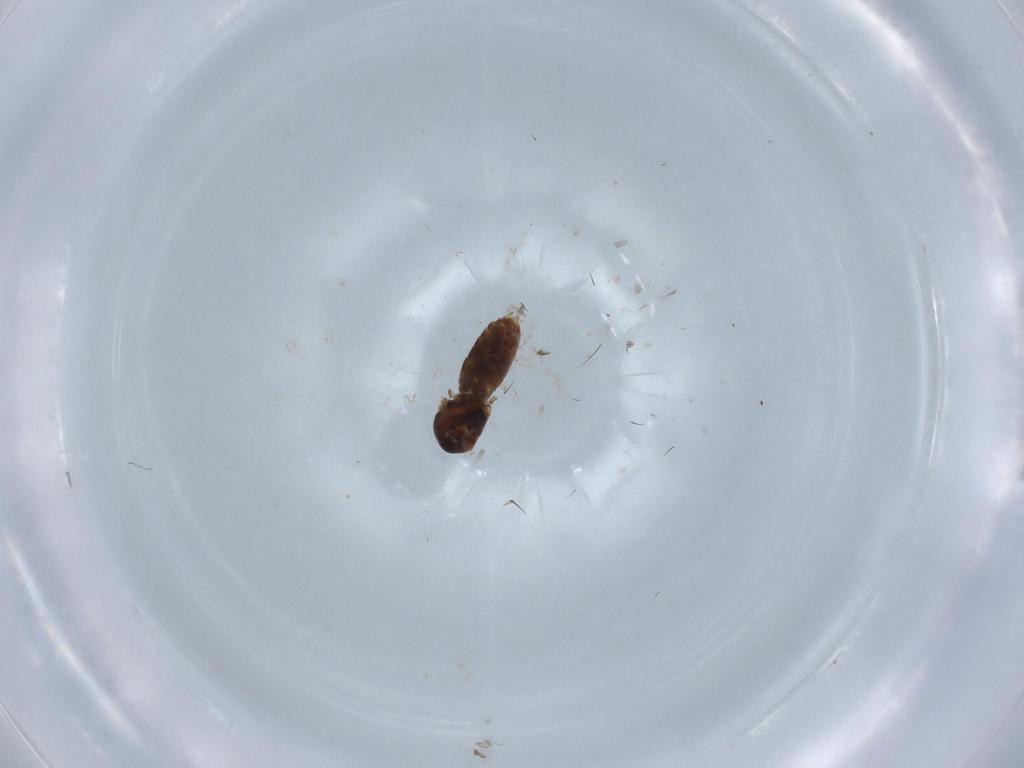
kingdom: Animalia
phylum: Arthropoda
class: Insecta
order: Diptera
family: Ceratopogonidae
